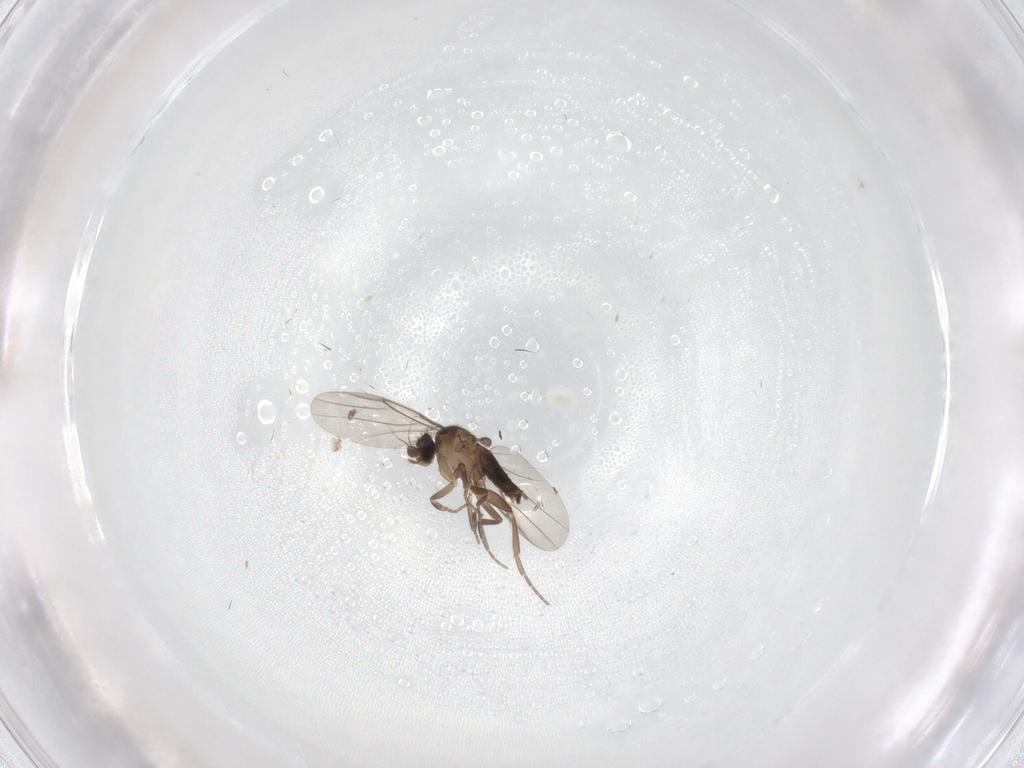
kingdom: Animalia
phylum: Arthropoda
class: Insecta
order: Diptera
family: Phoridae
